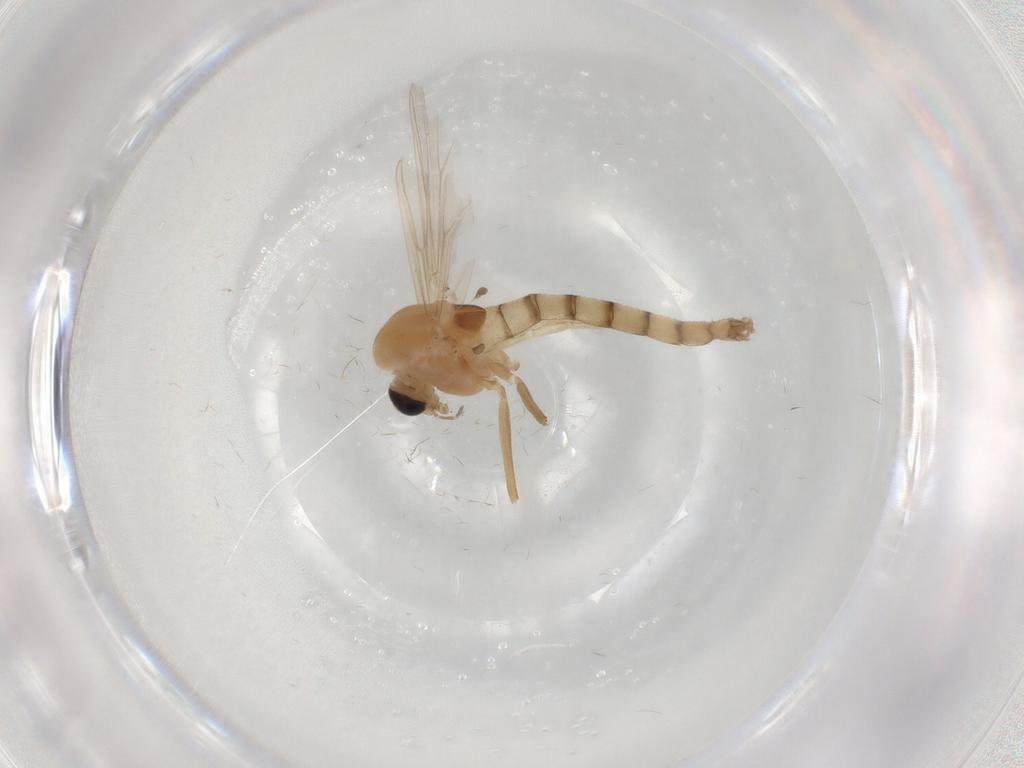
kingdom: Animalia
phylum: Arthropoda
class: Insecta
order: Diptera
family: Chironomidae
